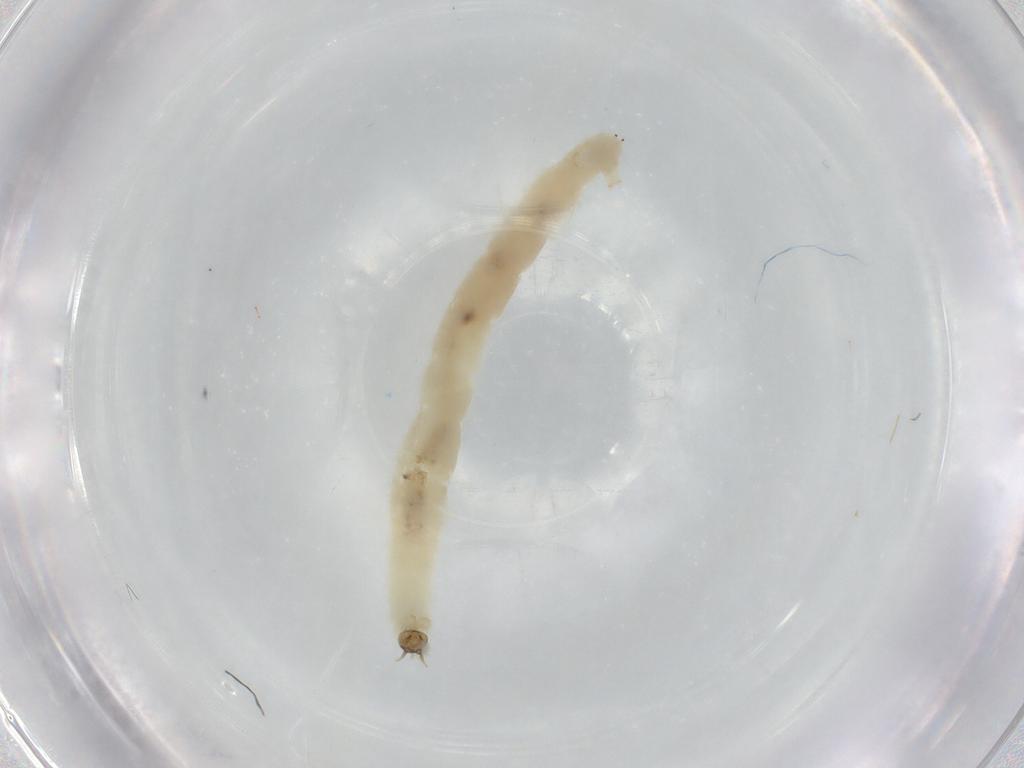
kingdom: Animalia
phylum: Arthropoda
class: Insecta
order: Diptera
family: Chironomidae
